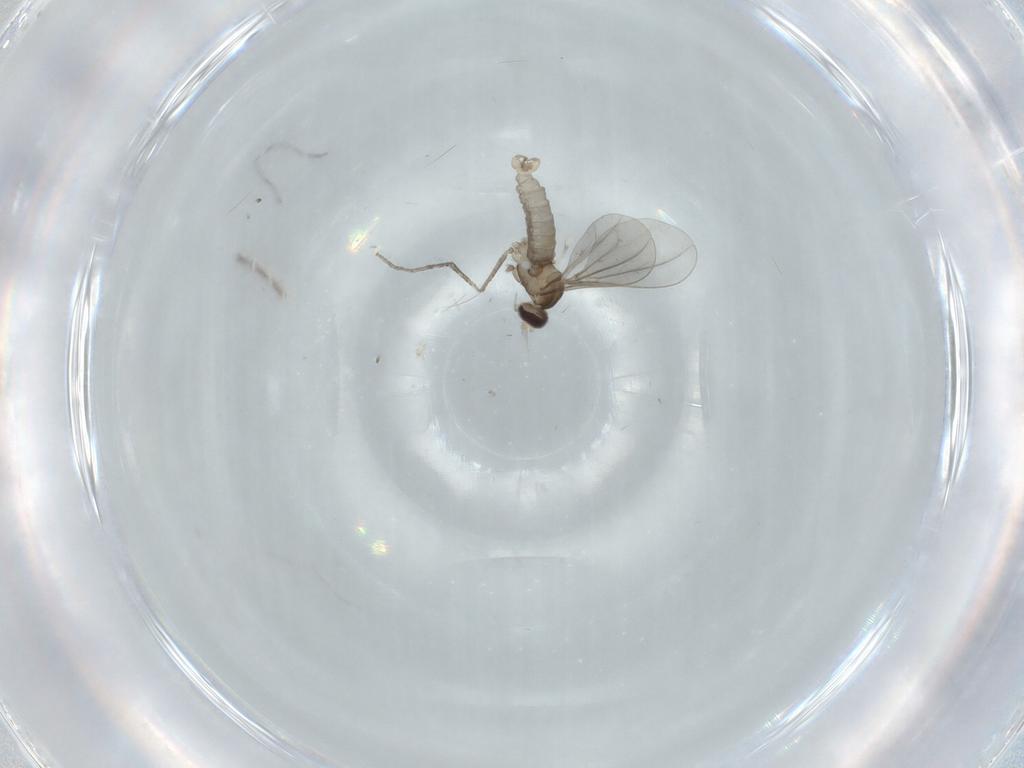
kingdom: Animalia
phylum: Arthropoda
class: Insecta
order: Diptera
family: Cecidomyiidae
